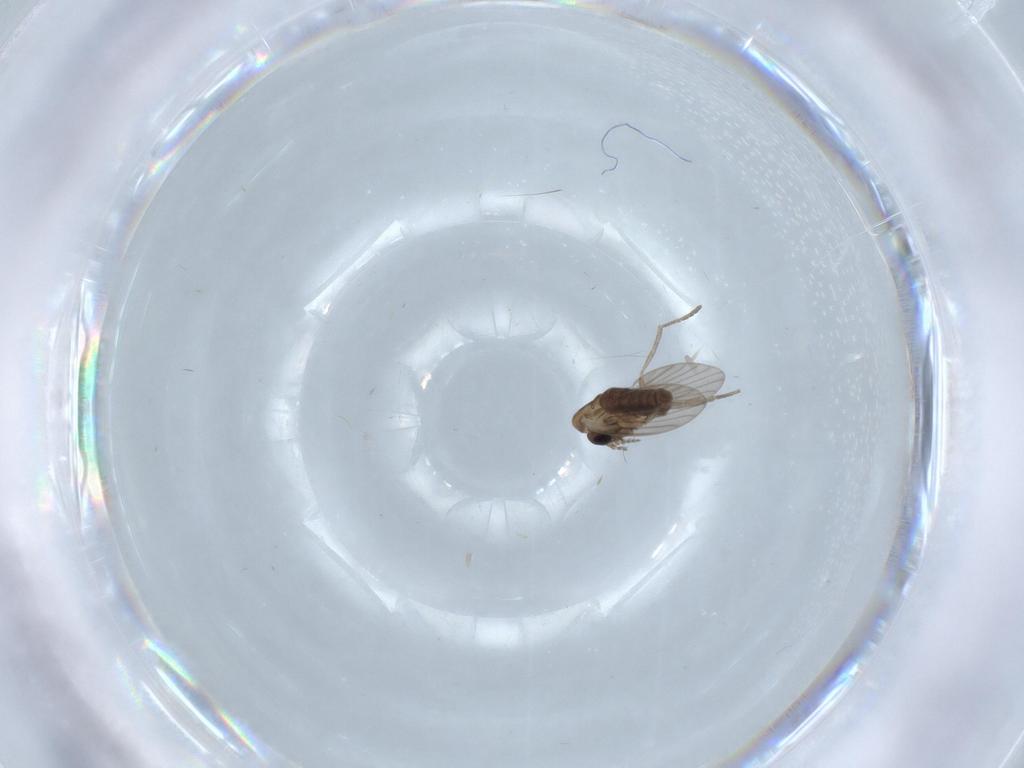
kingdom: Animalia
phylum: Arthropoda
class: Insecta
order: Diptera
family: Psychodidae
